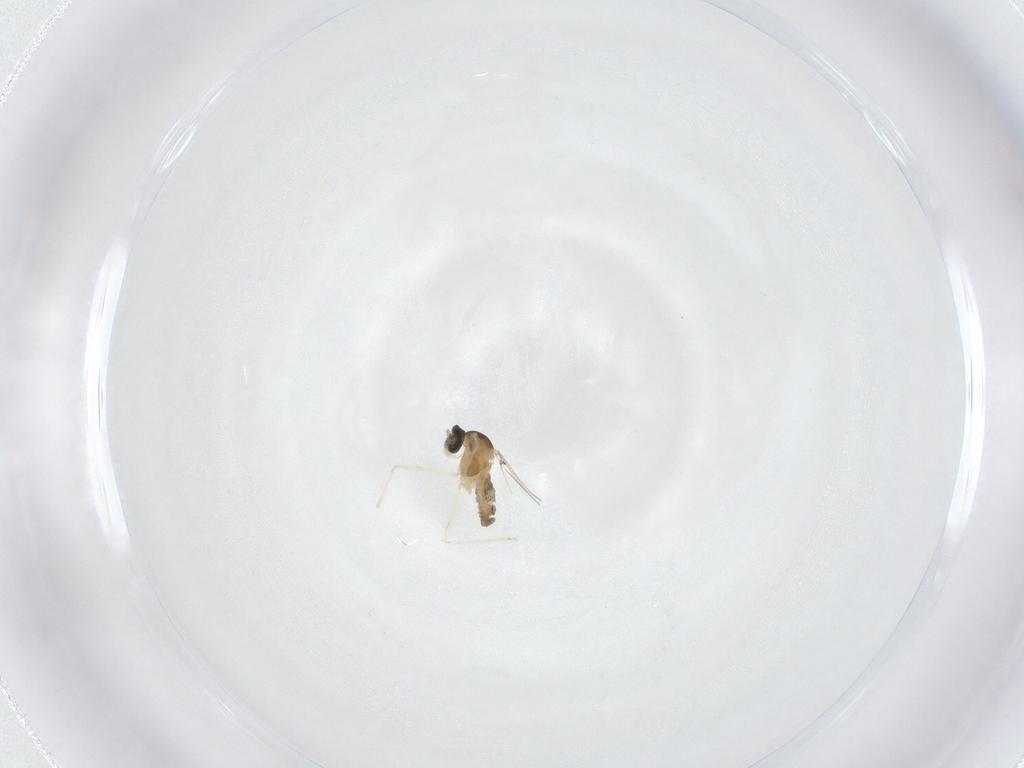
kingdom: Animalia
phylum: Arthropoda
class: Insecta
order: Diptera
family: Cecidomyiidae
